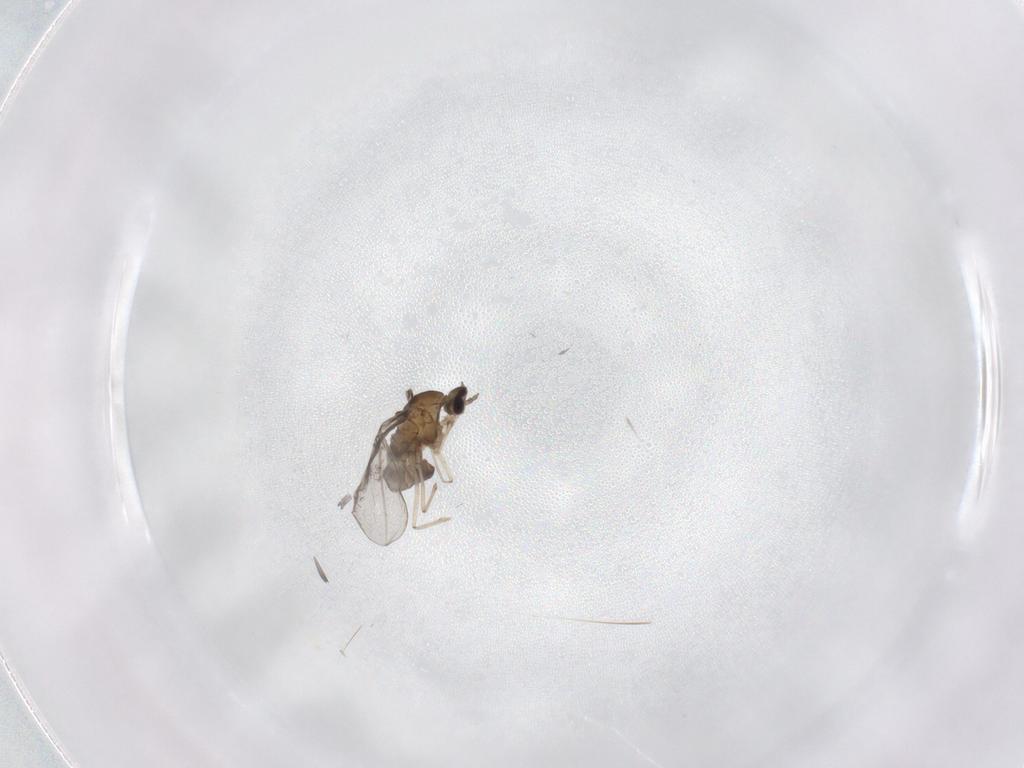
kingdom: Animalia
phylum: Arthropoda
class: Insecta
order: Diptera
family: Cecidomyiidae
